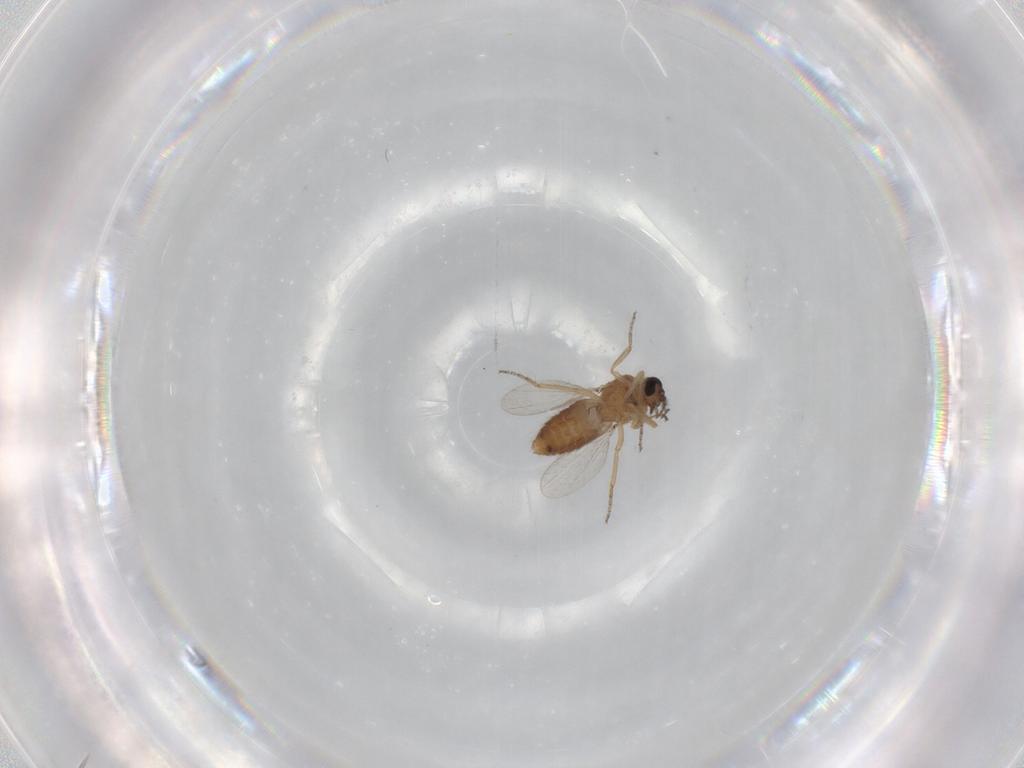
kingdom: Animalia
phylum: Arthropoda
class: Insecta
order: Diptera
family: Ceratopogonidae
